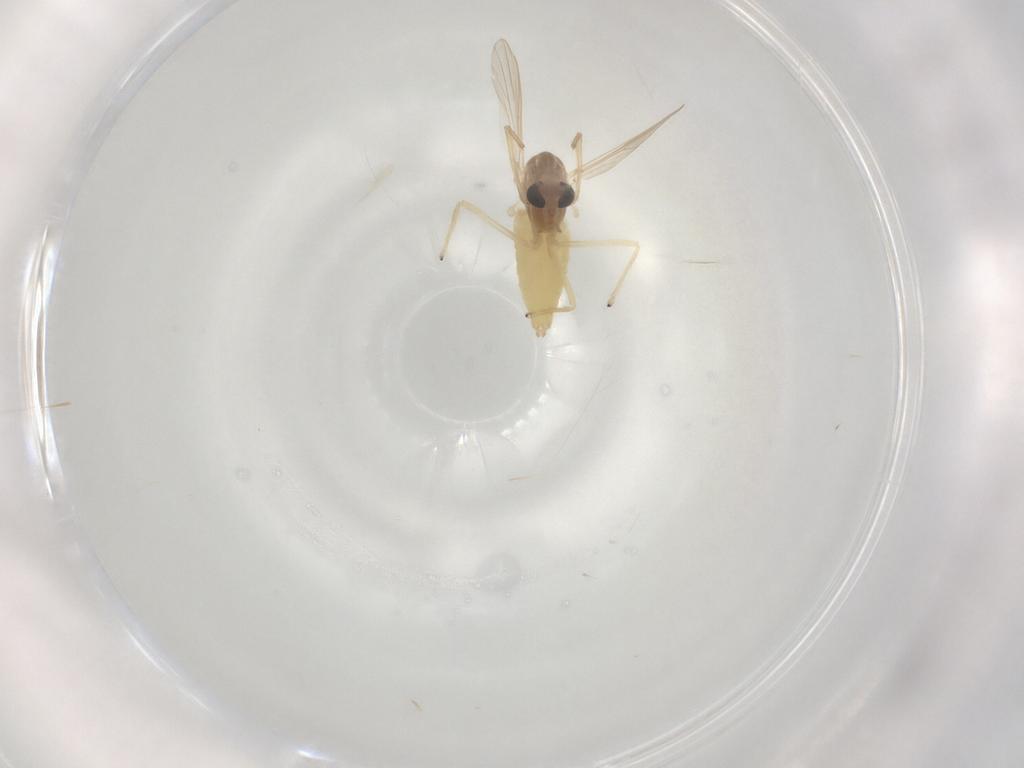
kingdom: Animalia
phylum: Arthropoda
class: Insecta
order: Diptera
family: Chironomidae
